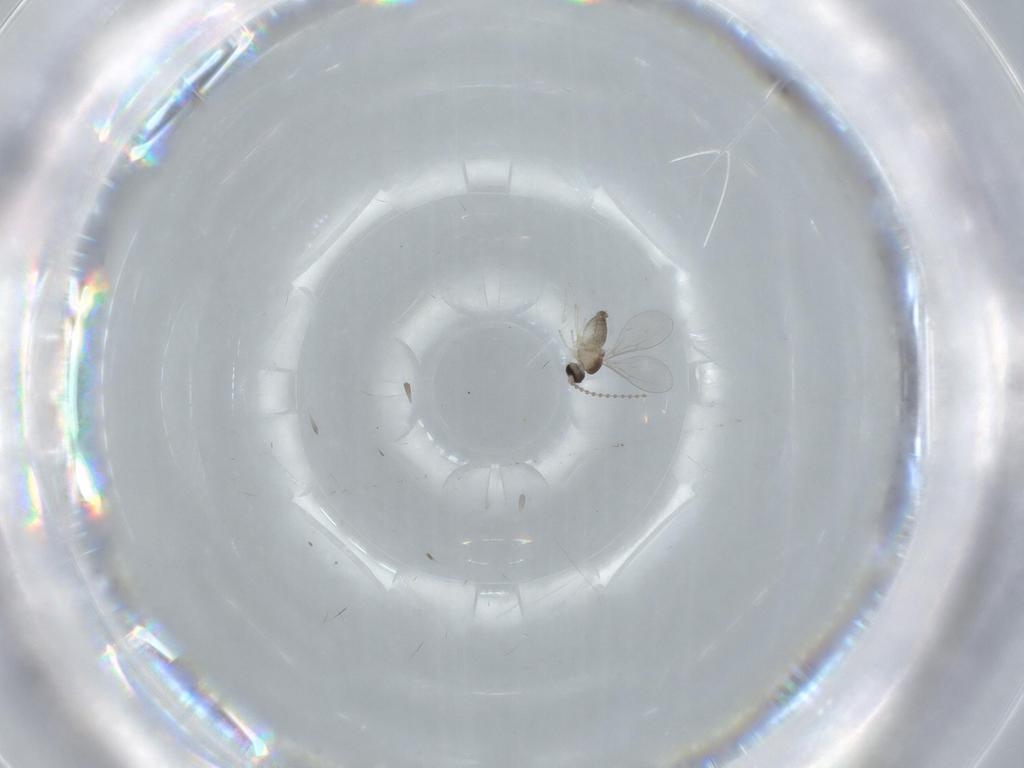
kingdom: Animalia
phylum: Arthropoda
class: Insecta
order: Diptera
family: Cecidomyiidae
